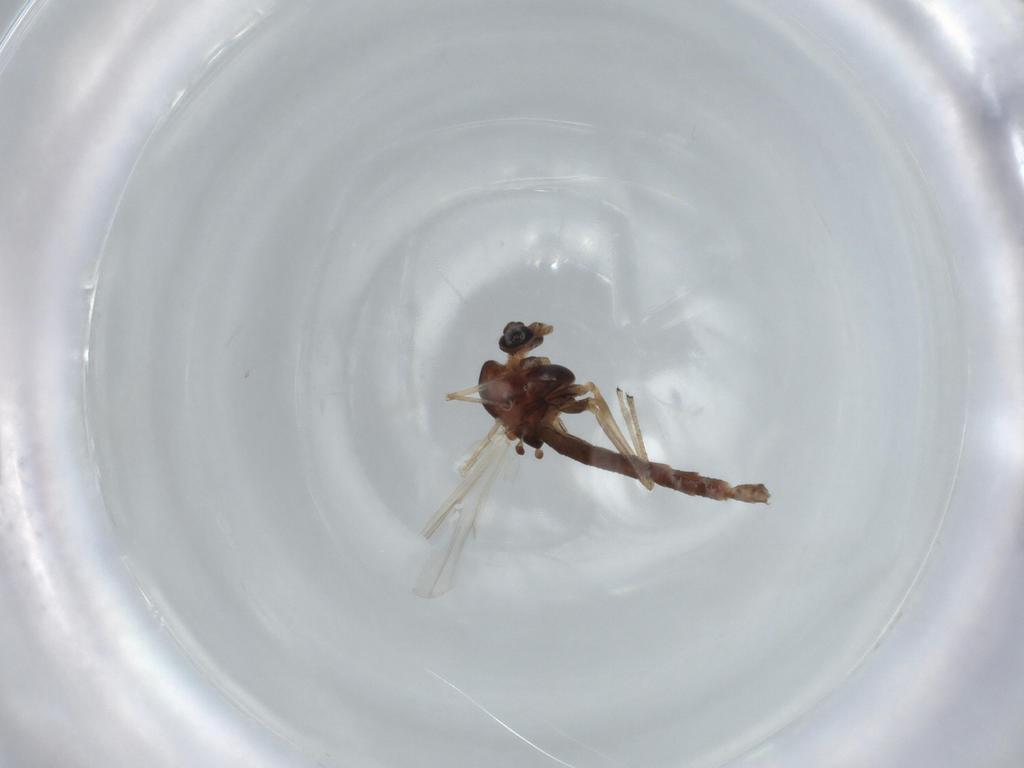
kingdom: Animalia
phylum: Arthropoda
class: Insecta
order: Diptera
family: Chironomidae
